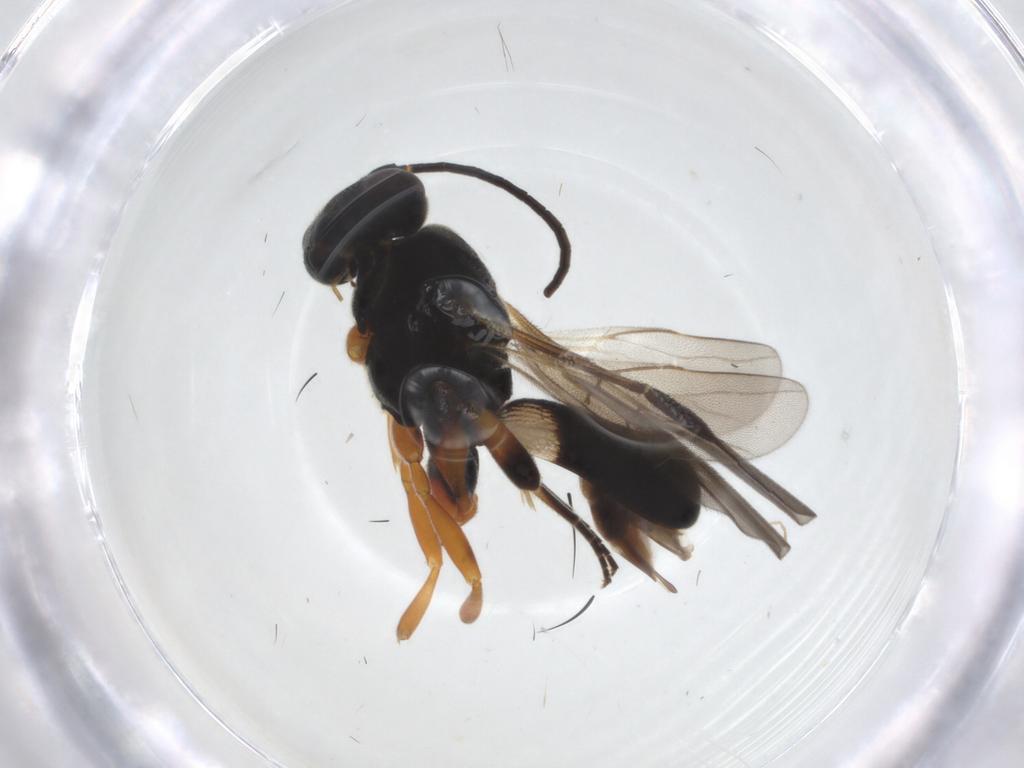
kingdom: Animalia
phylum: Arthropoda
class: Insecta
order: Hymenoptera
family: Ichneumonidae
